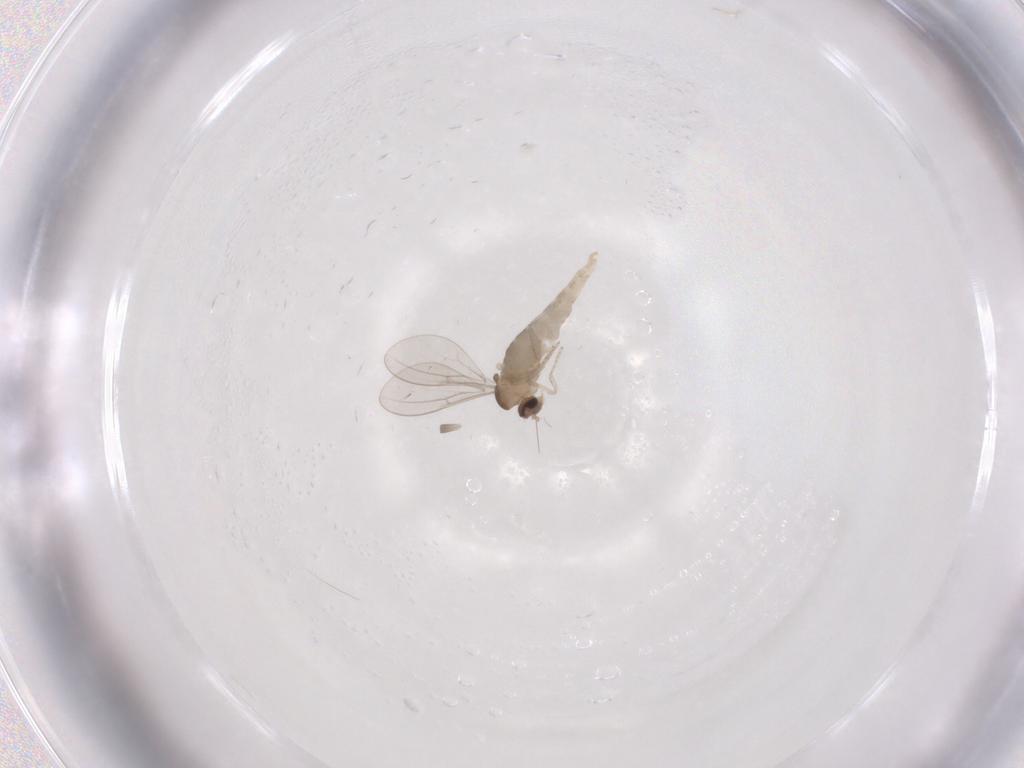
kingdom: Animalia
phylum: Arthropoda
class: Insecta
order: Diptera
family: Cecidomyiidae
